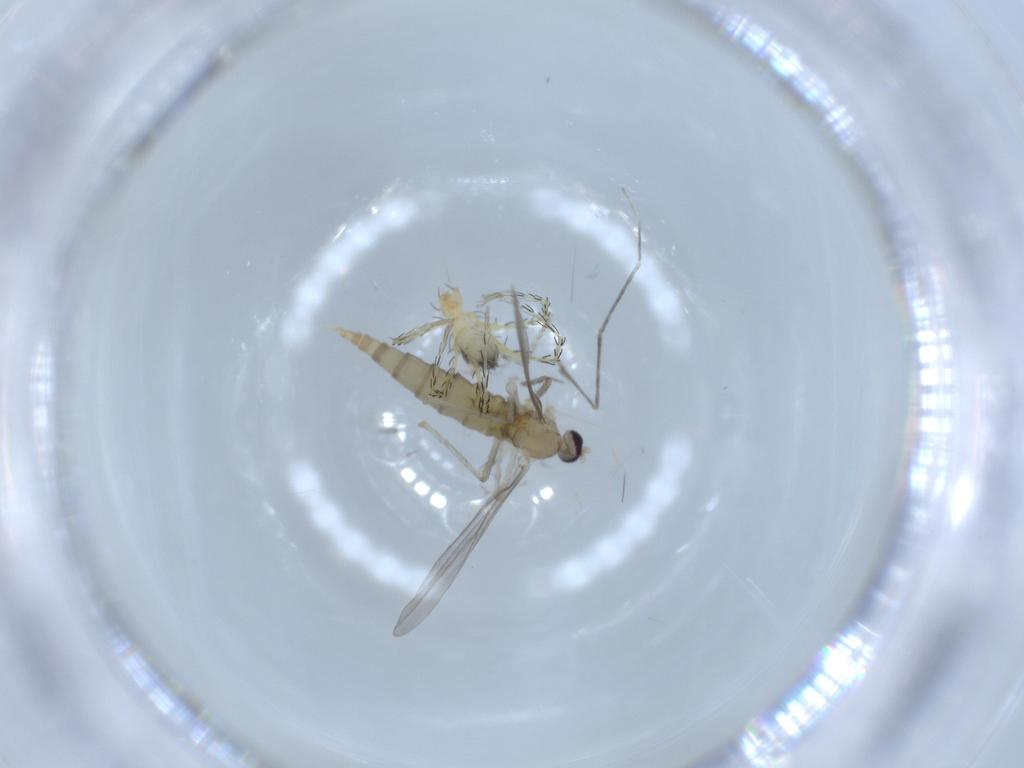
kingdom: Animalia
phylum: Arthropoda
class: Insecta
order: Diptera
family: Cecidomyiidae
